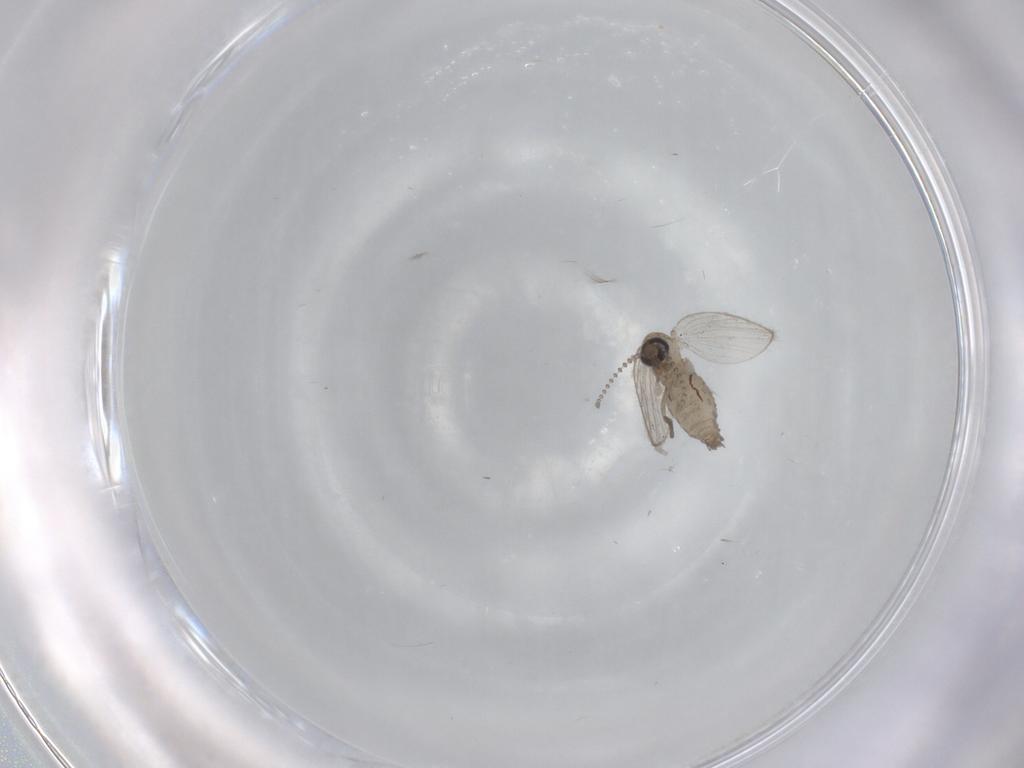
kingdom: Animalia
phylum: Arthropoda
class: Insecta
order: Diptera
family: Psychodidae
